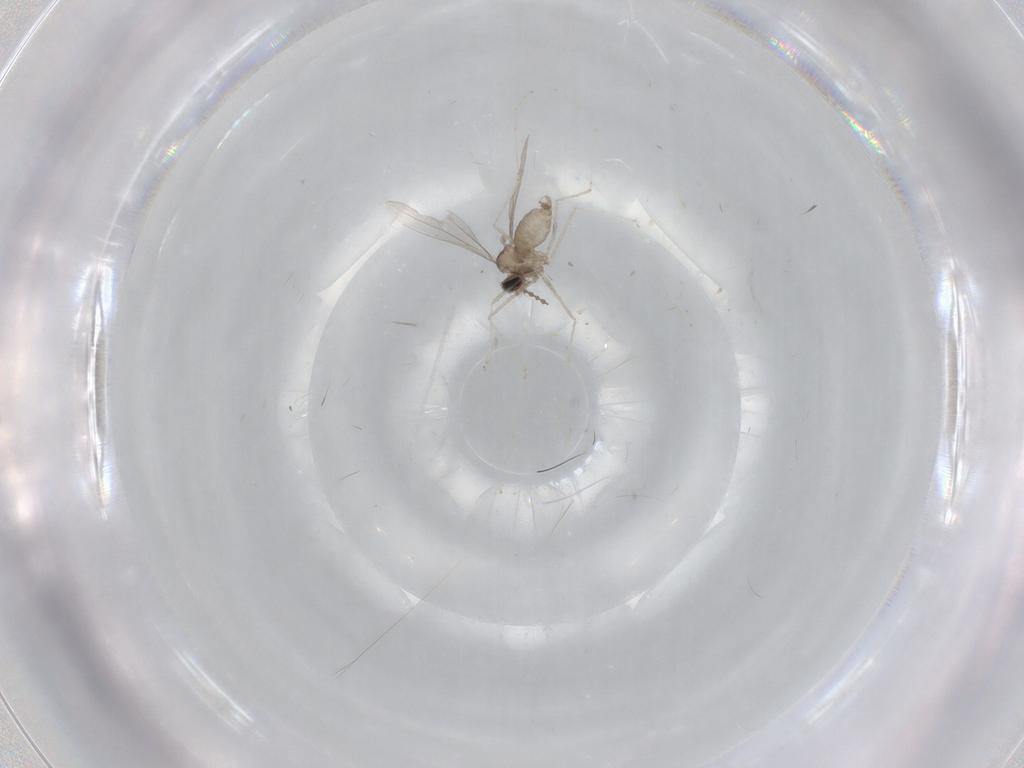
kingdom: Animalia
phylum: Arthropoda
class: Insecta
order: Diptera
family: Cecidomyiidae
